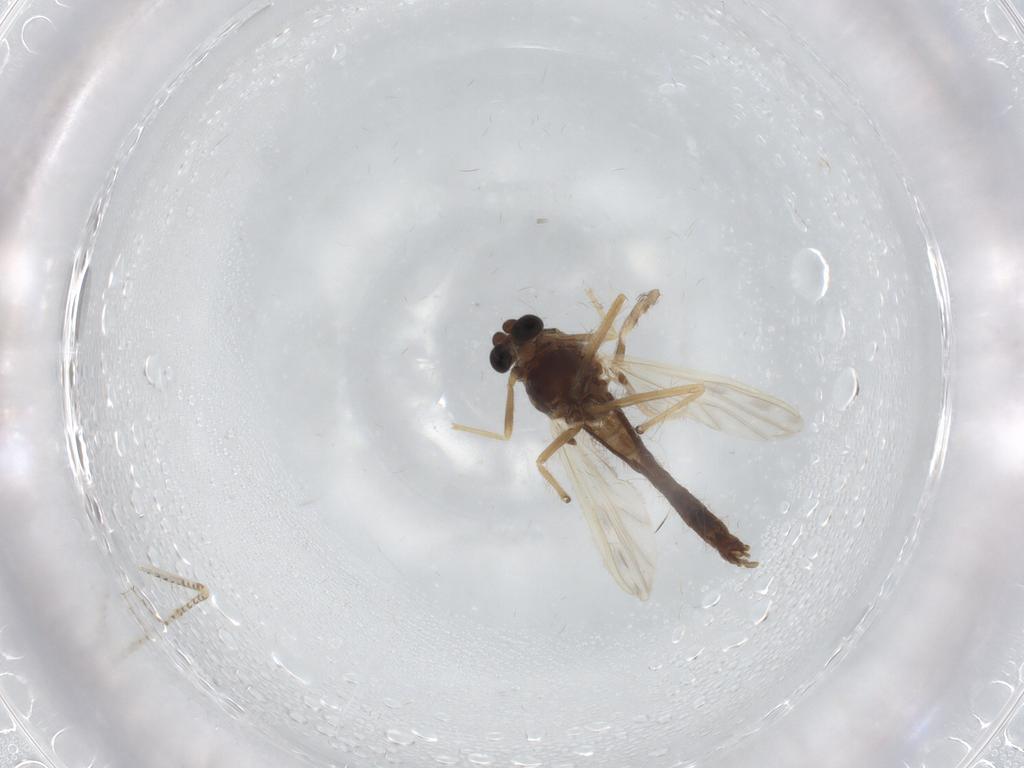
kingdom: Animalia
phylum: Arthropoda
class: Insecta
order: Diptera
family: Chironomidae
